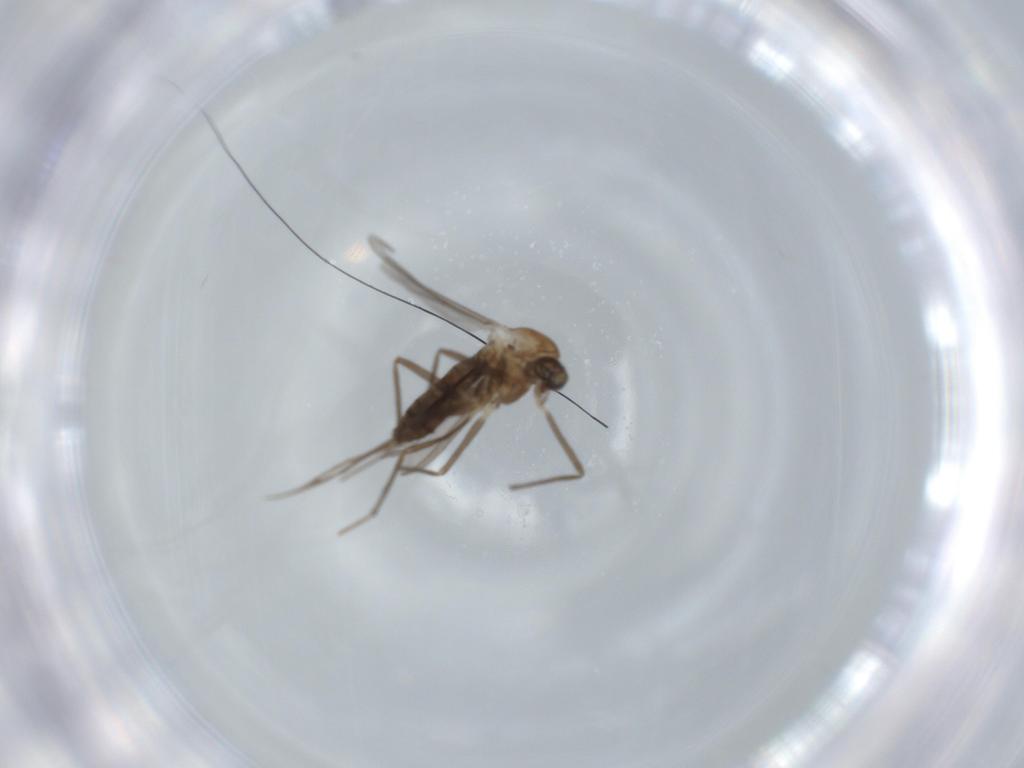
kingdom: Animalia
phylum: Arthropoda
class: Insecta
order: Diptera
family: Chironomidae
